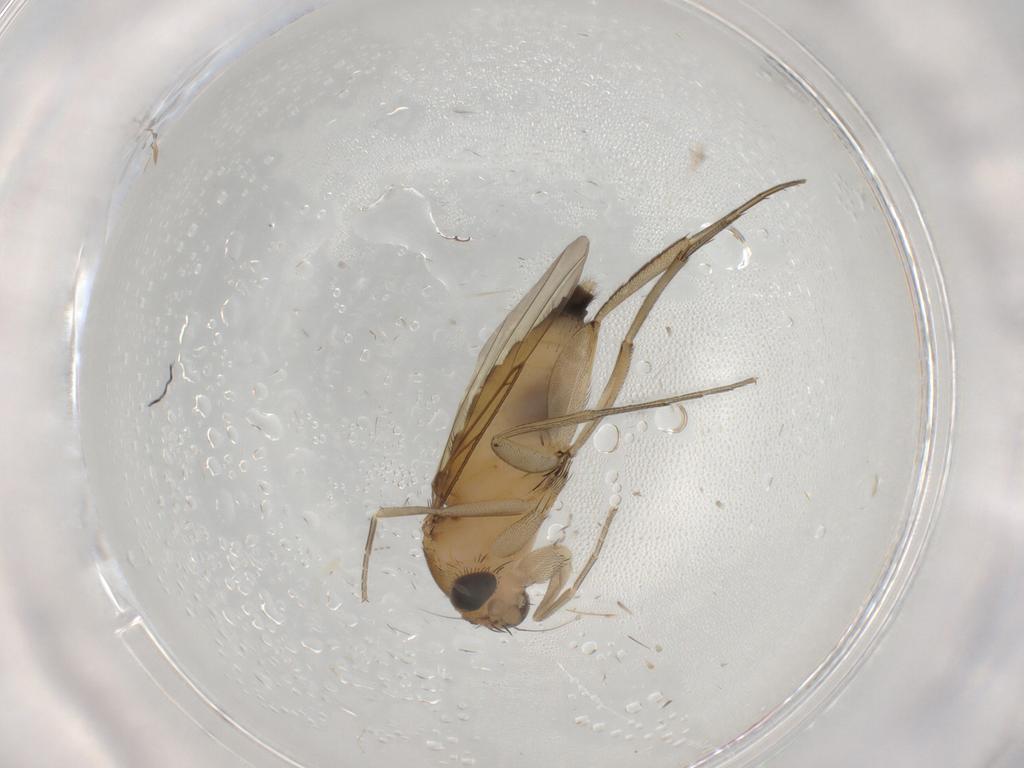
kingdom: Animalia
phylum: Arthropoda
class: Insecta
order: Diptera
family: Phoridae
